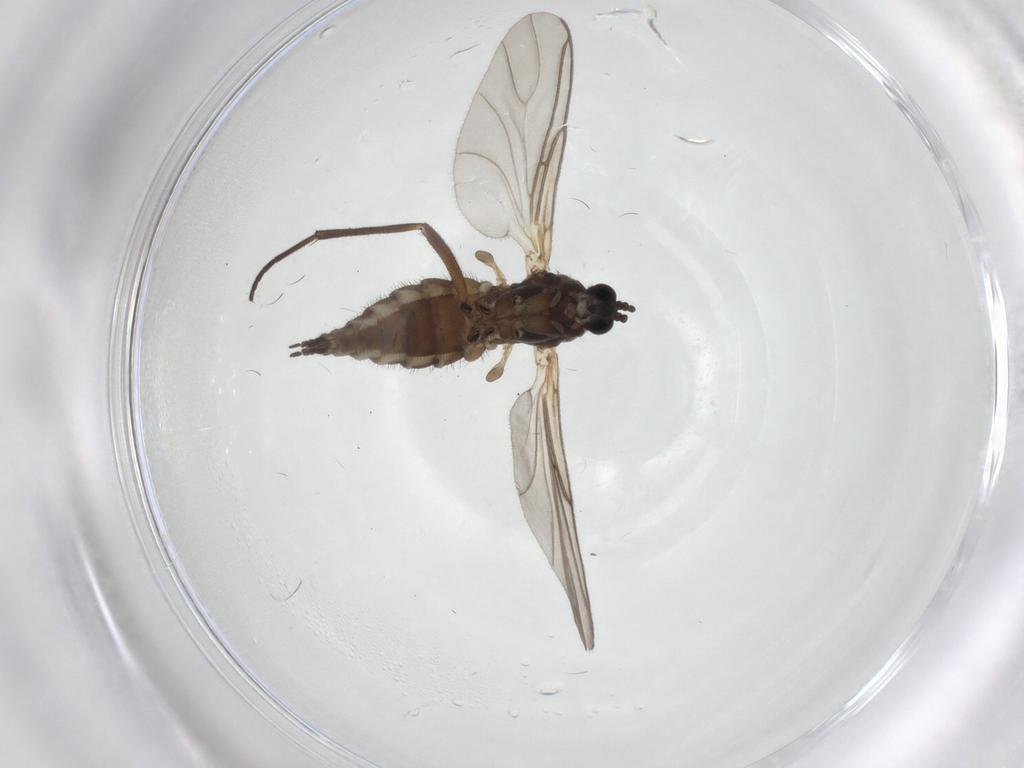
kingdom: Animalia
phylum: Arthropoda
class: Insecta
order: Diptera
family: Sciaridae
